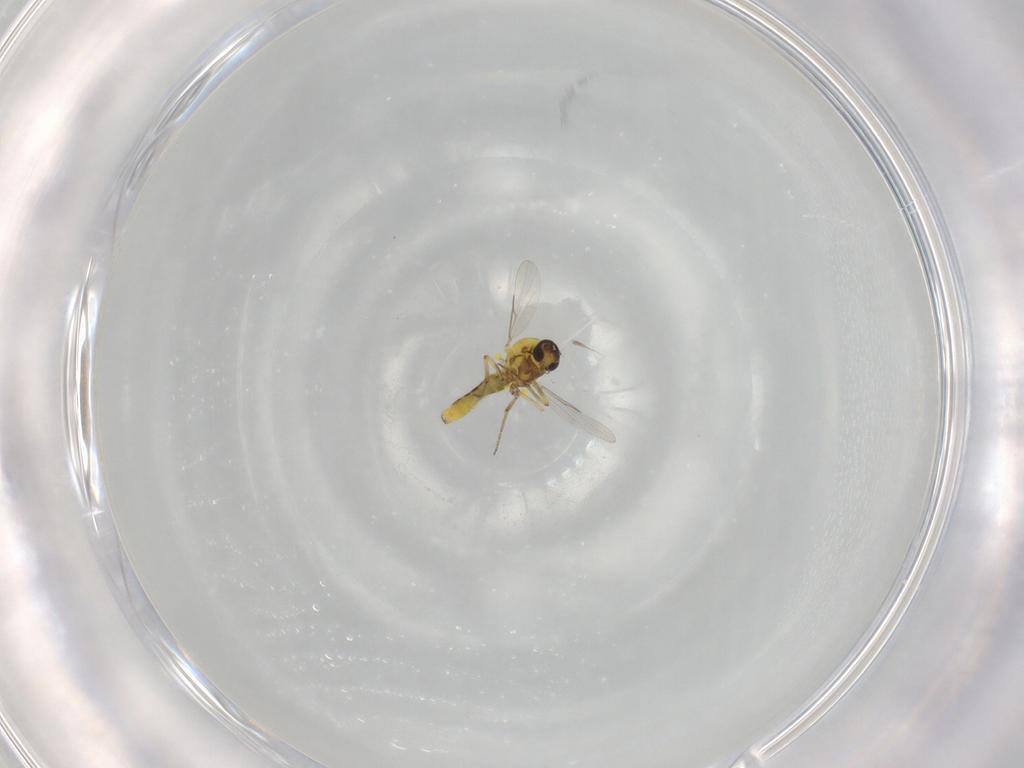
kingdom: Animalia
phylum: Arthropoda
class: Insecta
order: Diptera
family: Ceratopogonidae
